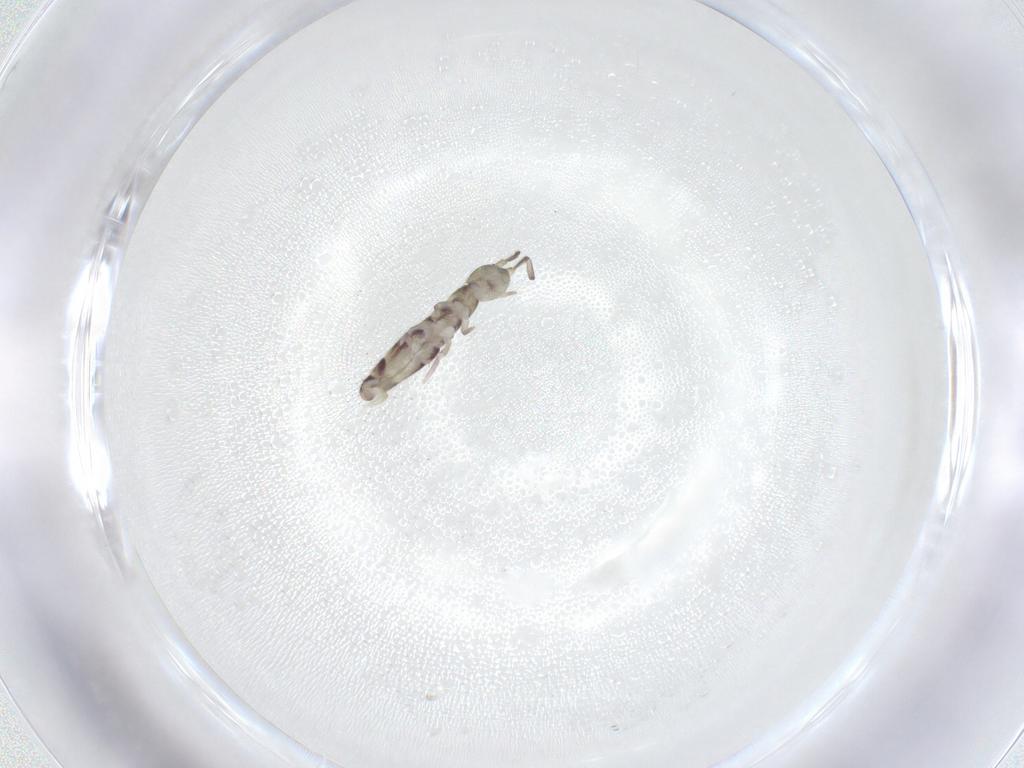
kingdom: Animalia
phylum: Arthropoda
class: Collembola
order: Entomobryomorpha
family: Isotomidae
